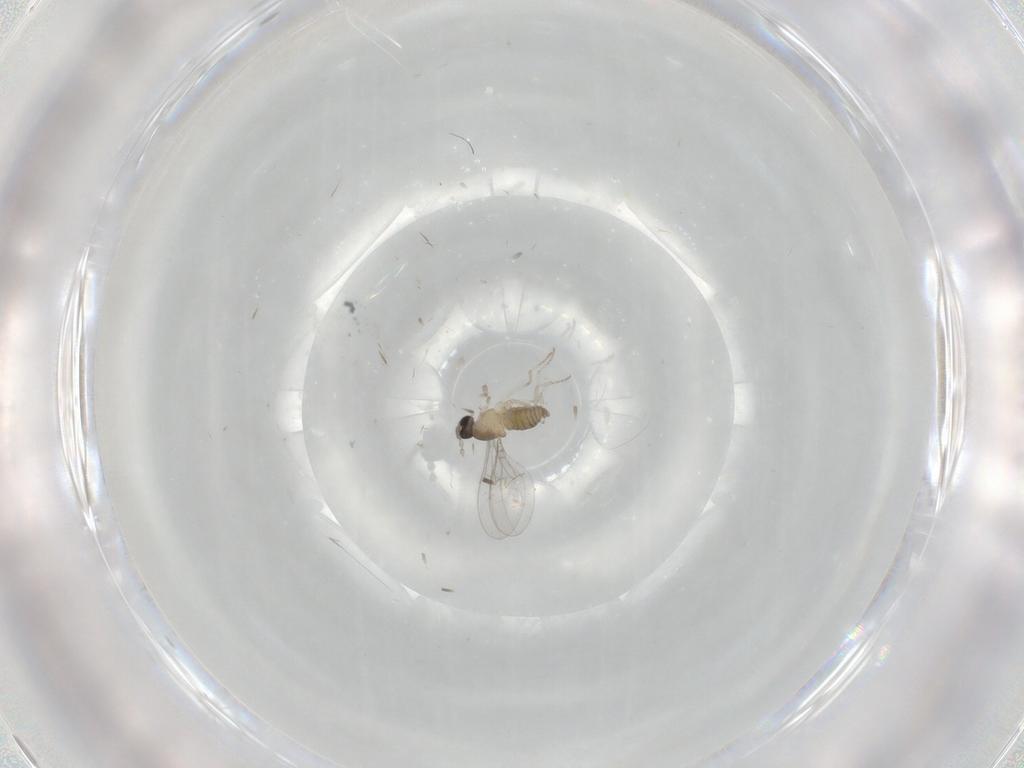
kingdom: Animalia
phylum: Arthropoda
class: Insecta
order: Diptera
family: Cecidomyiidae
